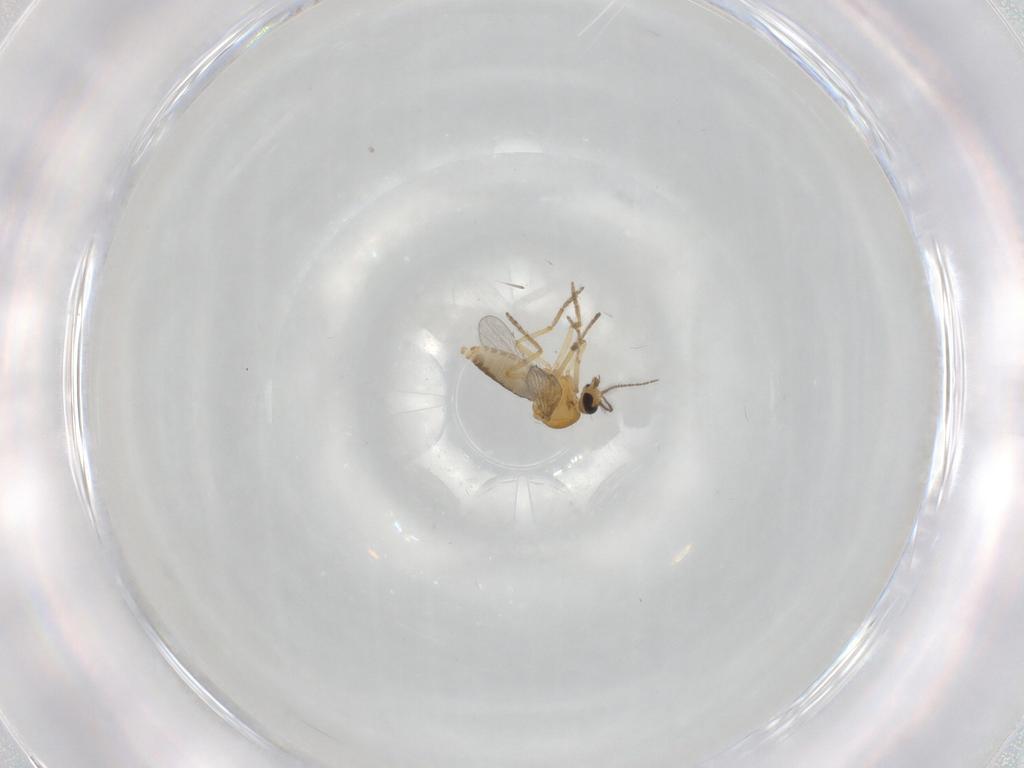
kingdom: Animalia
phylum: Arthropoda
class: Insecta
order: Diptera
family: Ceratopogonidae
